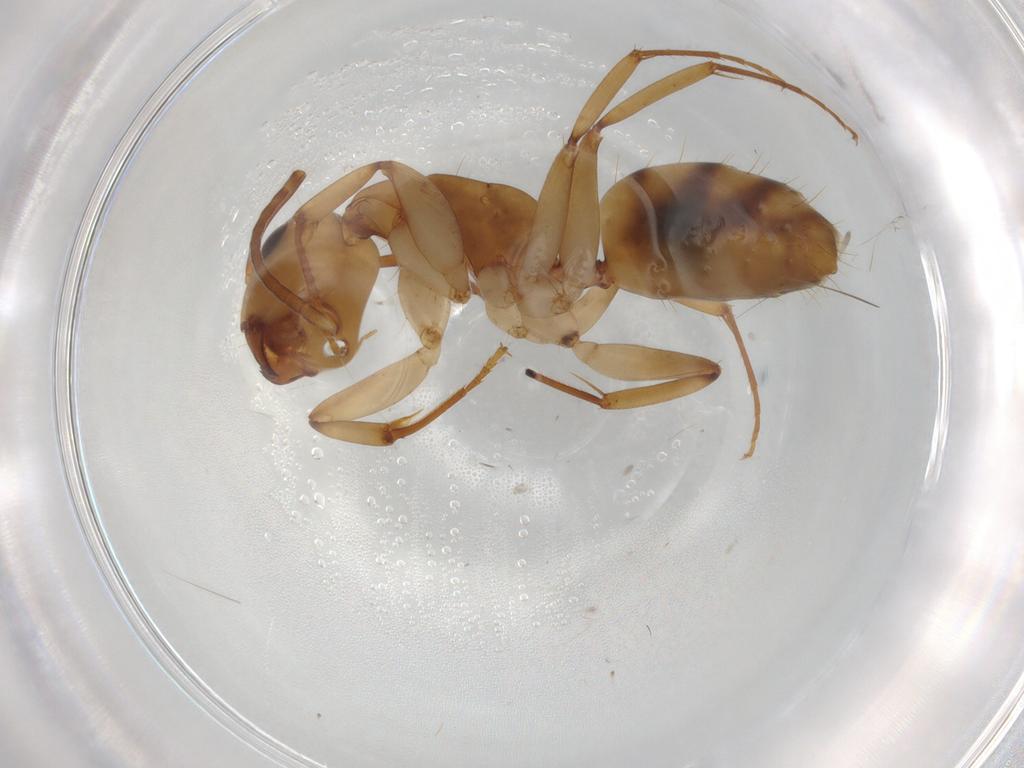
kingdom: Animalia
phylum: Arthropoda
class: Insecta
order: Hymenoptera
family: Formicidae
